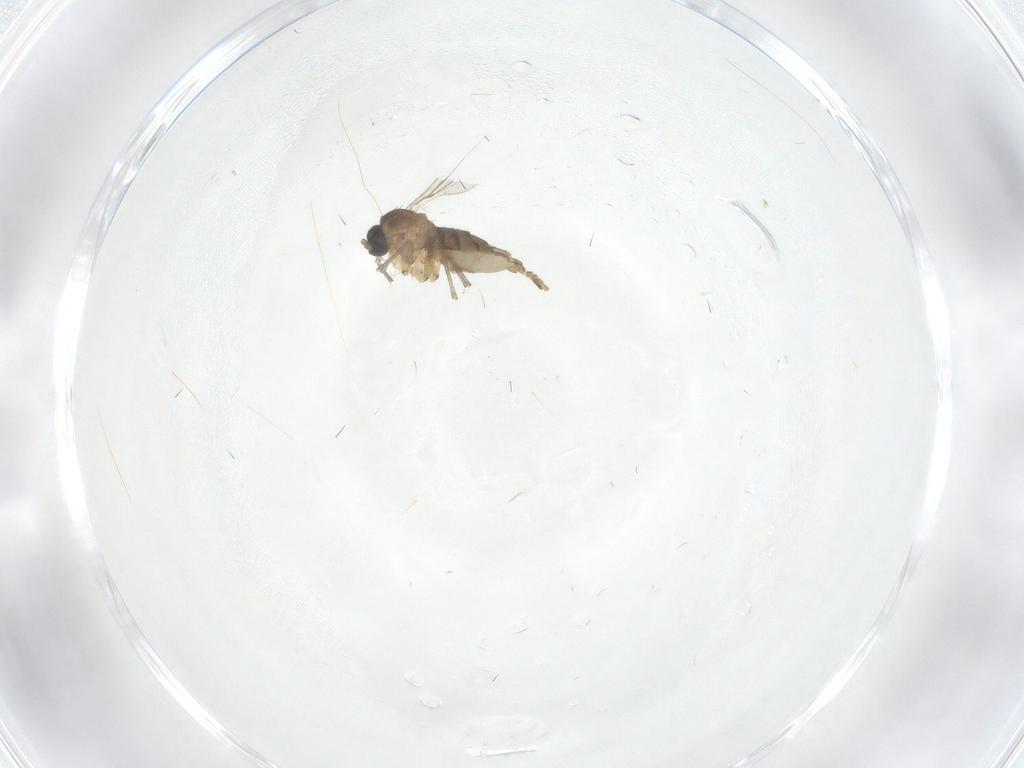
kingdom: Animalia
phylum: Arthropoda
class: Insecta
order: Diptera
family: Sciaridae
